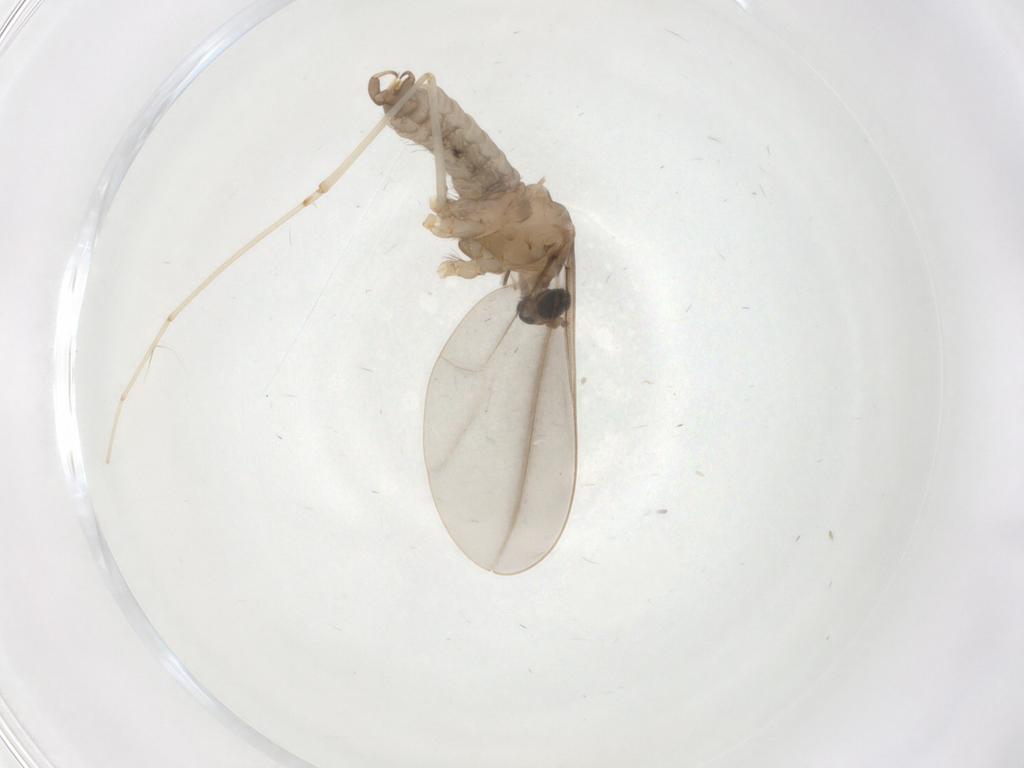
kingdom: Animalia
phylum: Arthropoda
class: Insecta
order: Diptera
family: Cecidomyiidae
